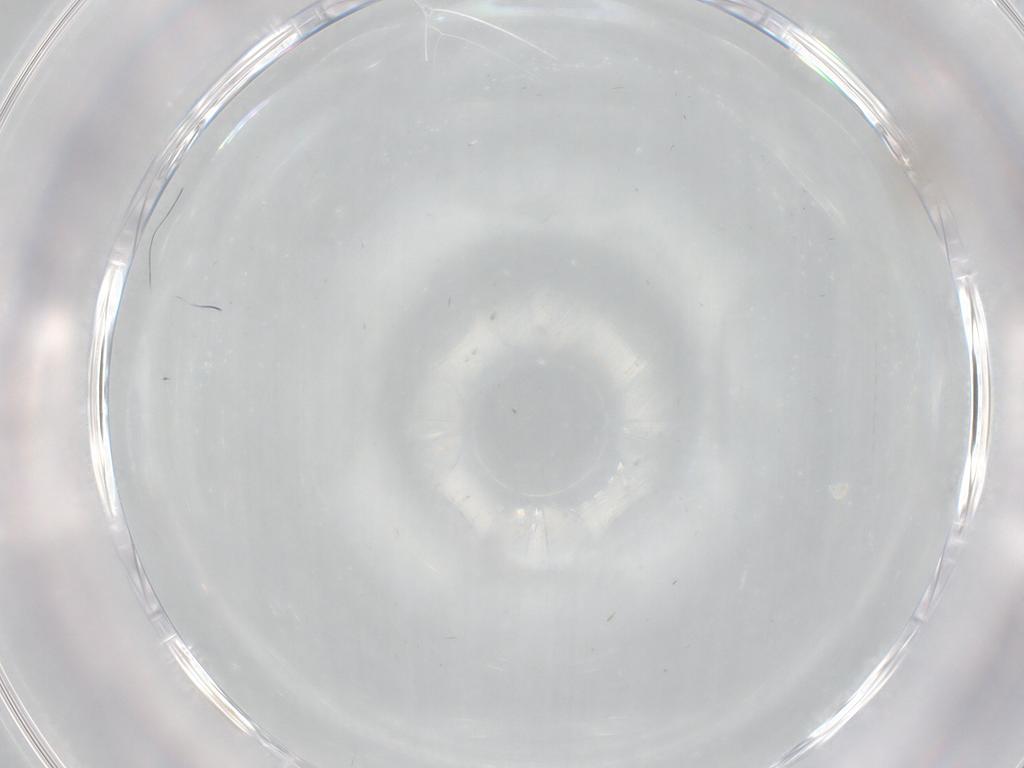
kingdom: Animalia
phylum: Arthropoda
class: Insecta
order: Diptera
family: Cecidomyiidae
